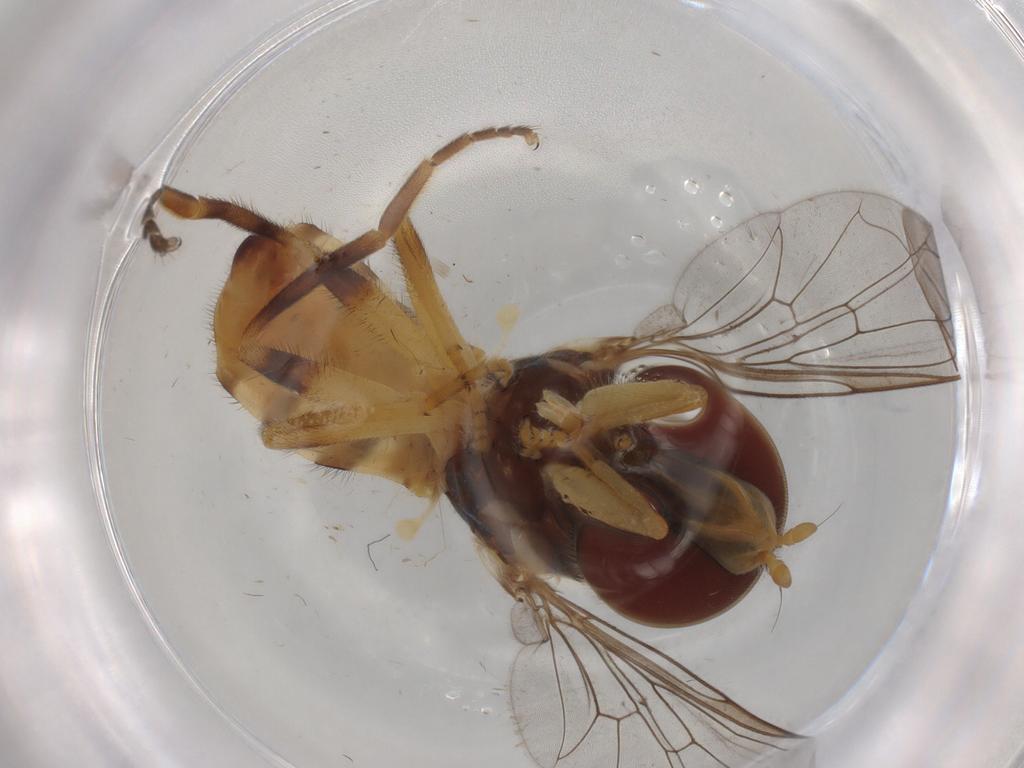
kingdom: Animalia
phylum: Arthropoda
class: Insecta
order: Diptera
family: Syrphidae
